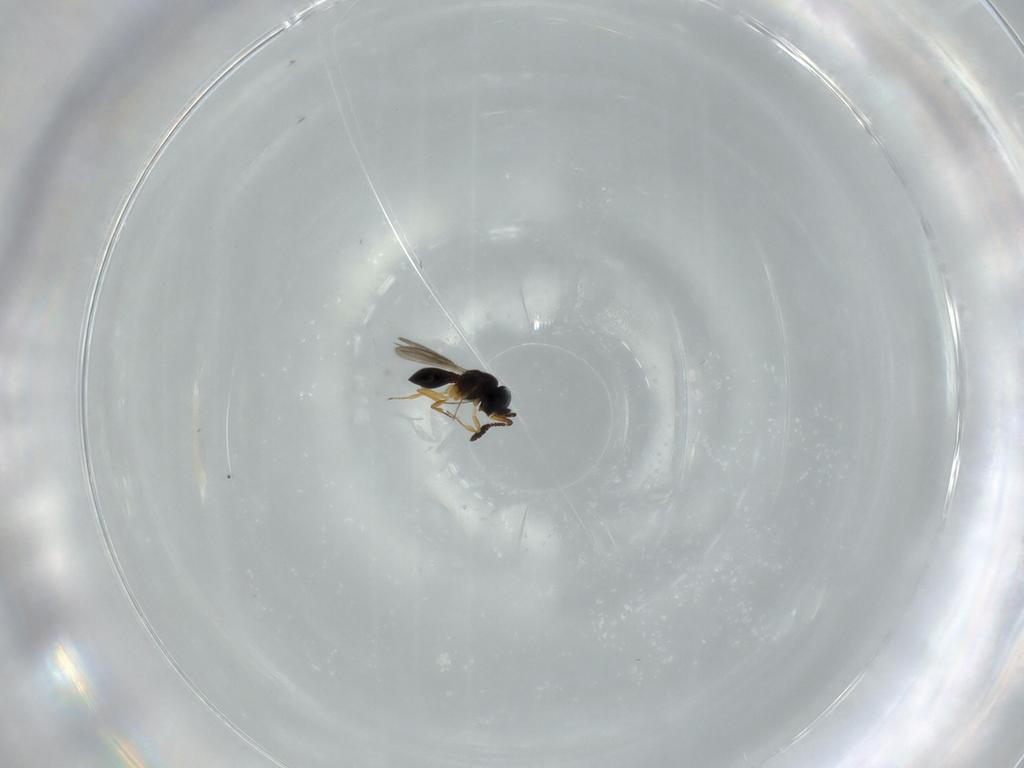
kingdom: Animalia
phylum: Arthropoda
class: Insecta
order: Hymenoptera
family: Scelionidae
